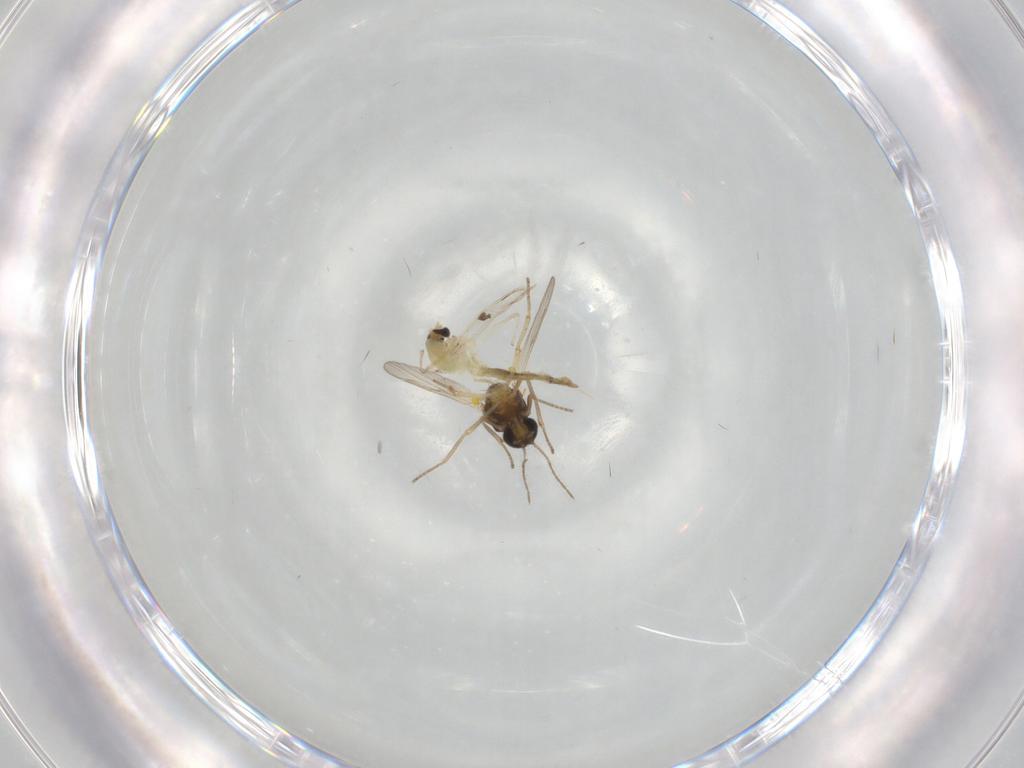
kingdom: Animalia
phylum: Arthropoda
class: Insecta
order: Diptera
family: Ceratopogonidae
